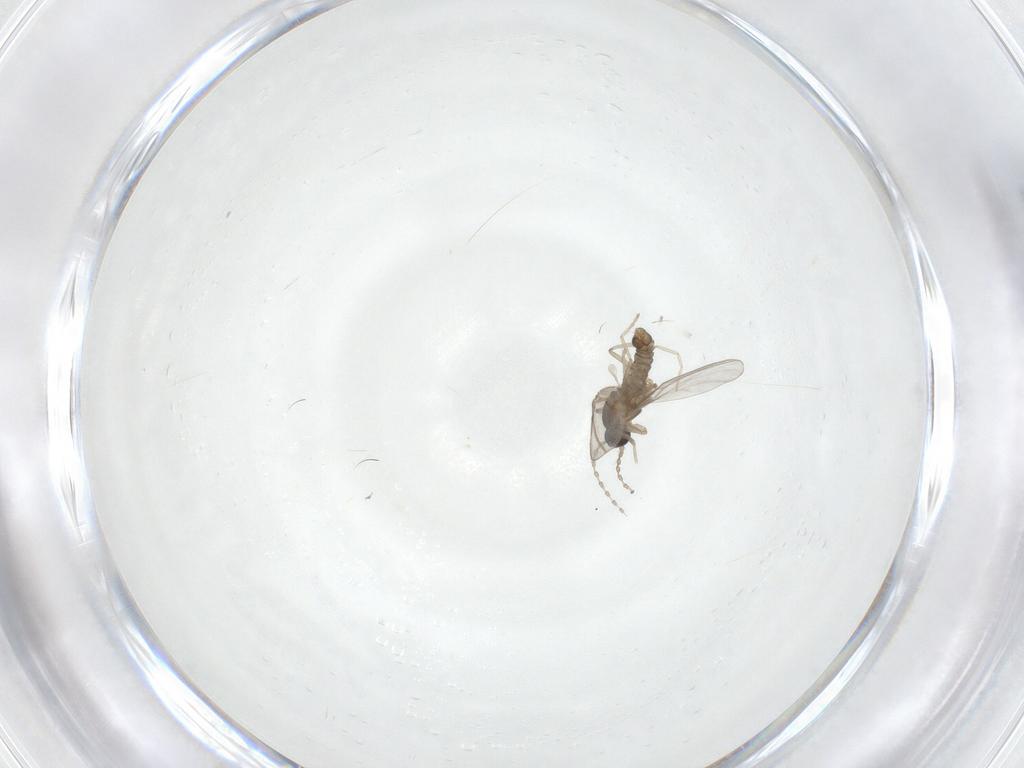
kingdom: Animalia
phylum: Arthropoda
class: Insecta
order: Diptera
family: Cecidomyiidae
